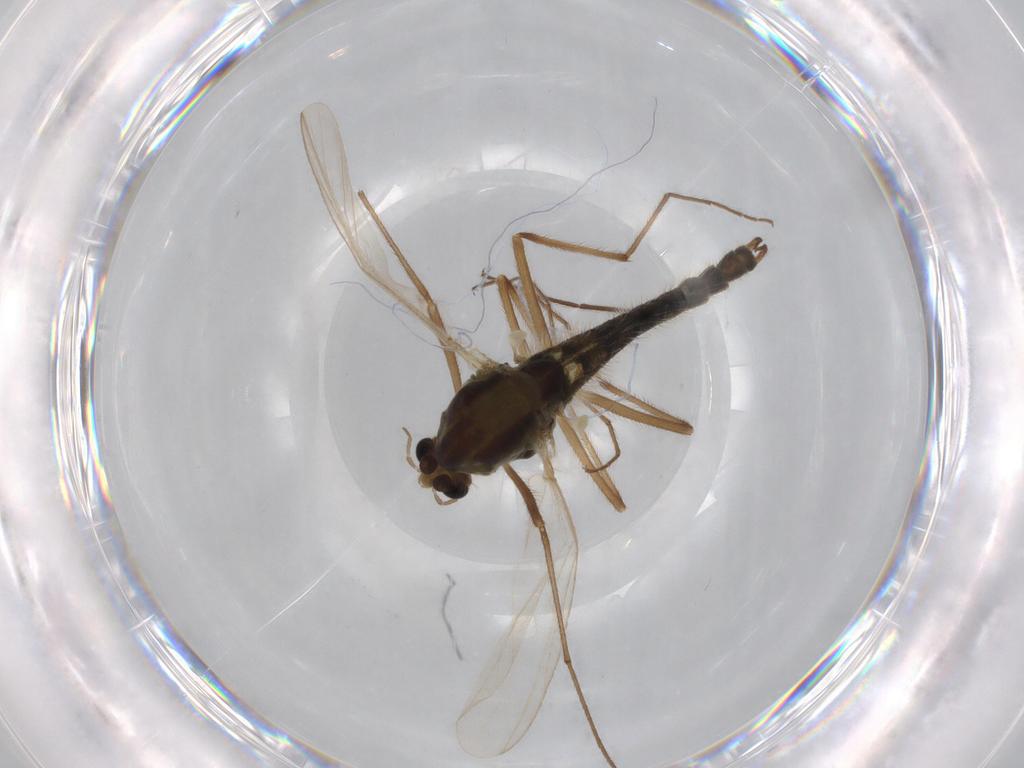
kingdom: Animalia
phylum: Arthropoda
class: Insecta
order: Diptera
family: Chironomidae
